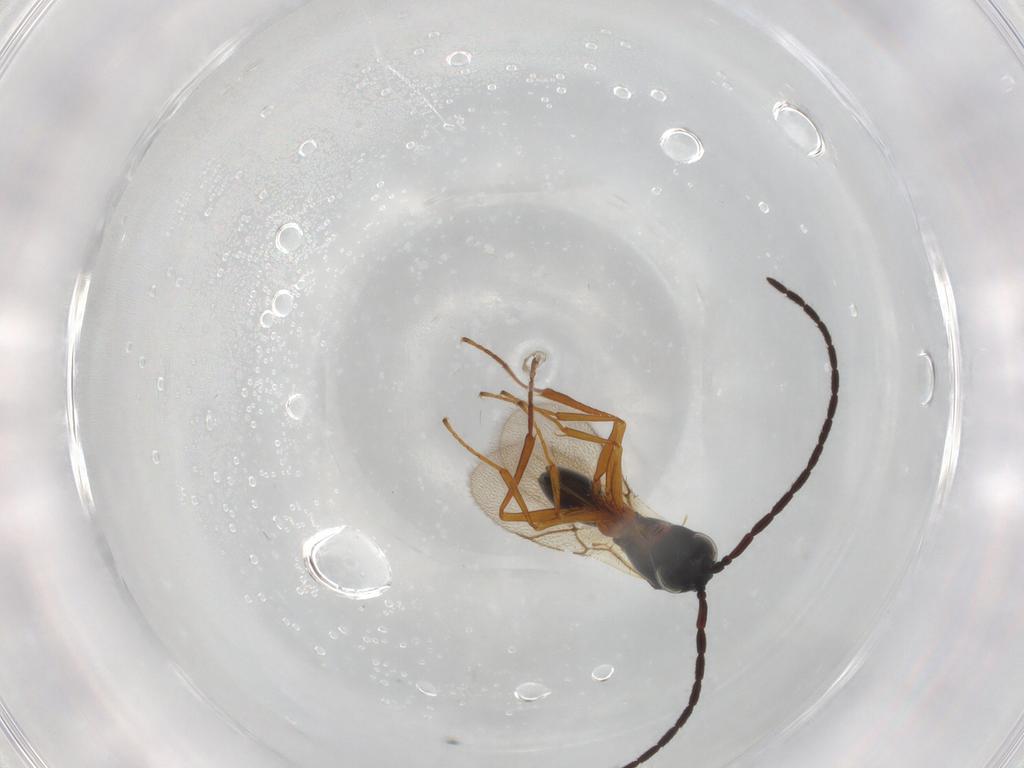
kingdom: Animalia
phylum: Arthropoda
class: Insecta
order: Hymenoptera
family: Figitidae
